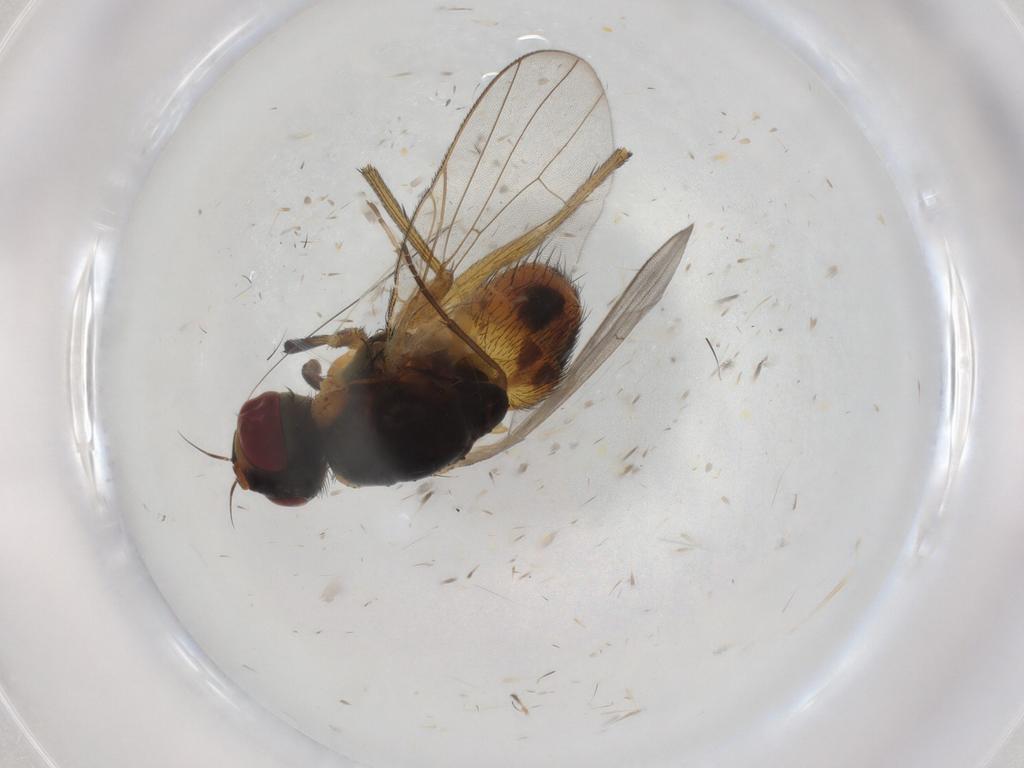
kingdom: Animalia
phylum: Arthropoda
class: Insecta
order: Diptera
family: Muscidae
